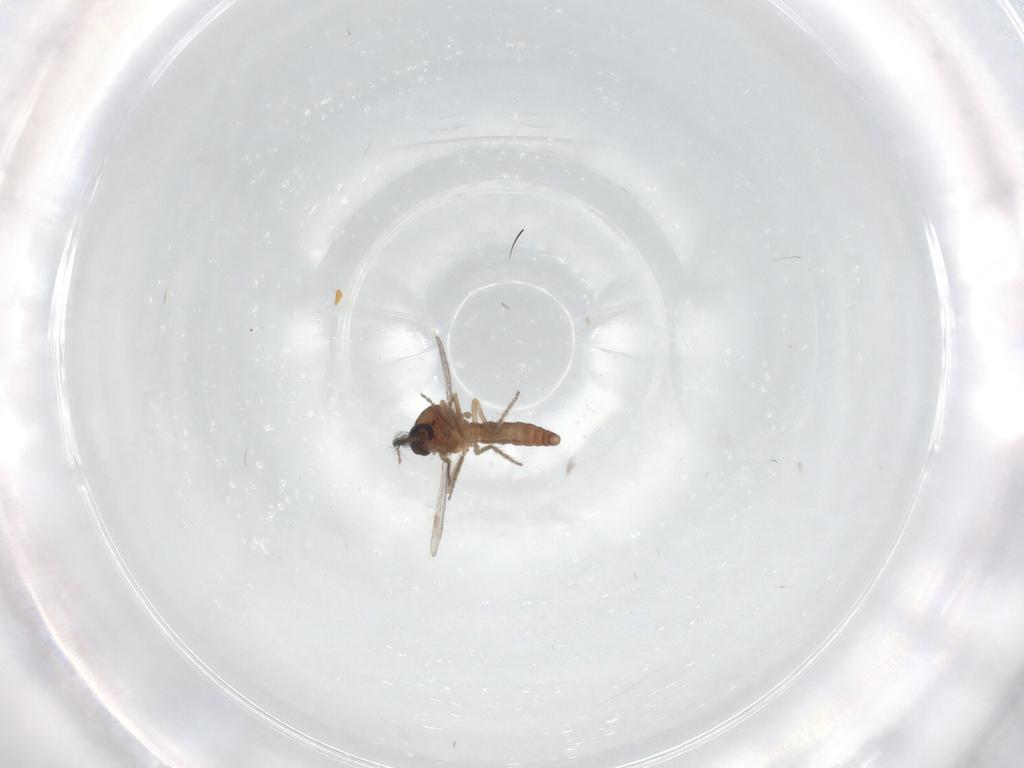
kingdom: Animalia
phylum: Arthropoda
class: Insecta
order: Diptera
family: Ceratopogonidae
